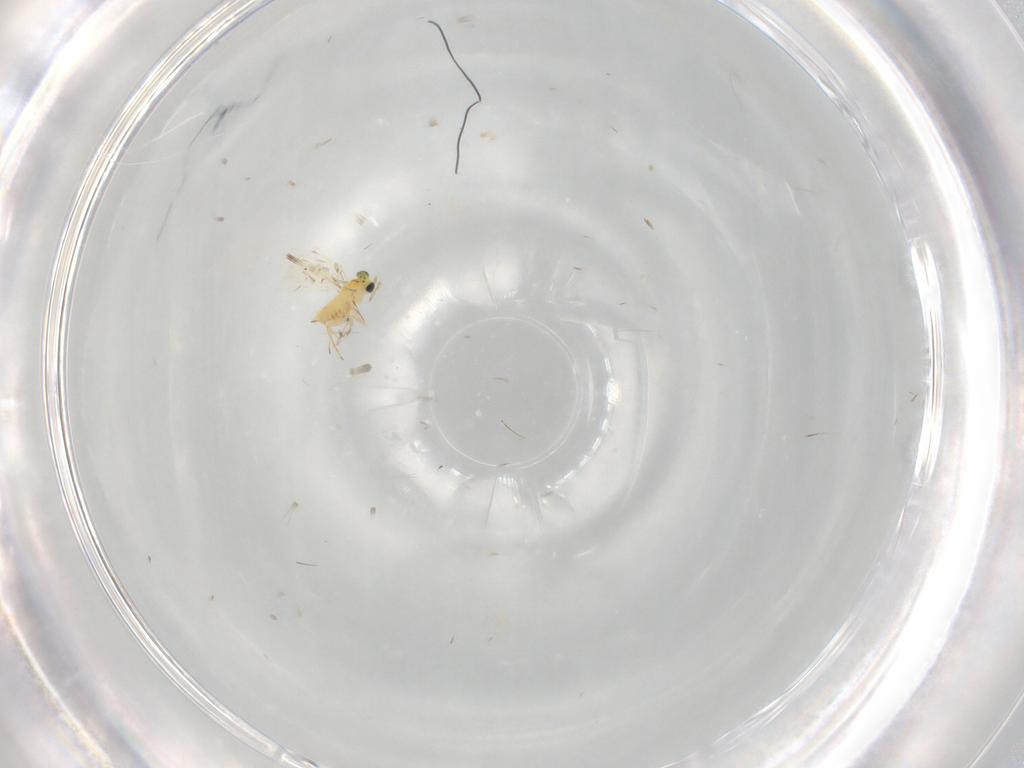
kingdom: Animalia
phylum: Arthropoda
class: Insecta
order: Hymenoptera
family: Trichogrammatidae
